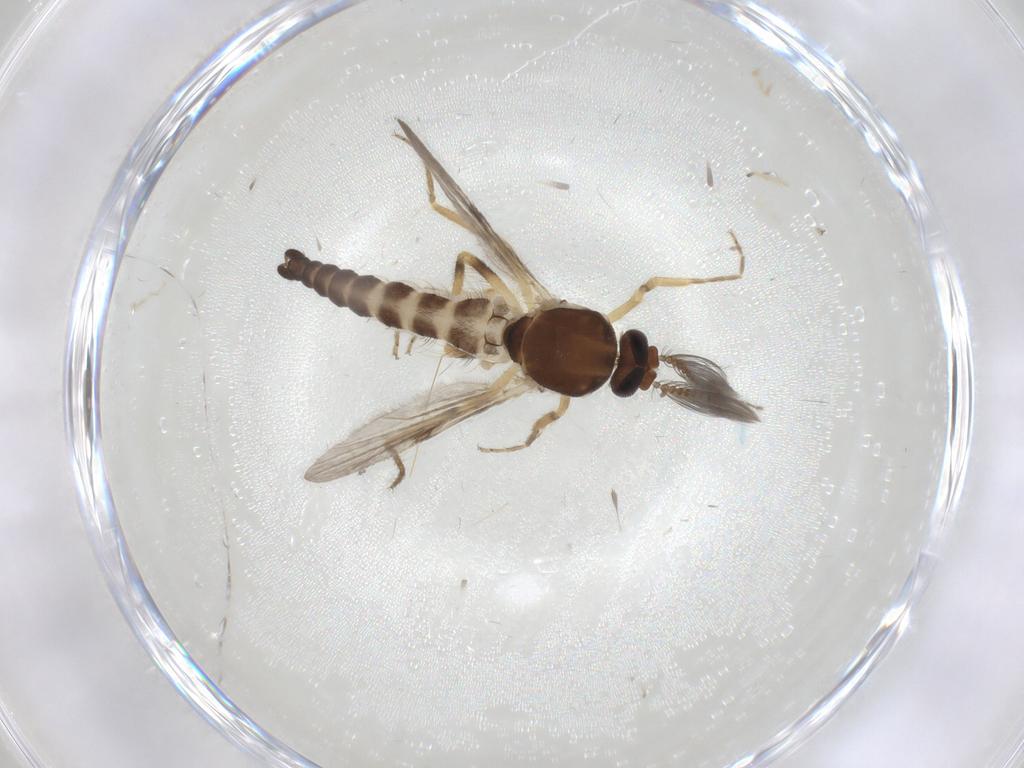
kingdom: Animalia
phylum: Arthropoda
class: Insecta
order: Diptera
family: Ceratopogonidae
